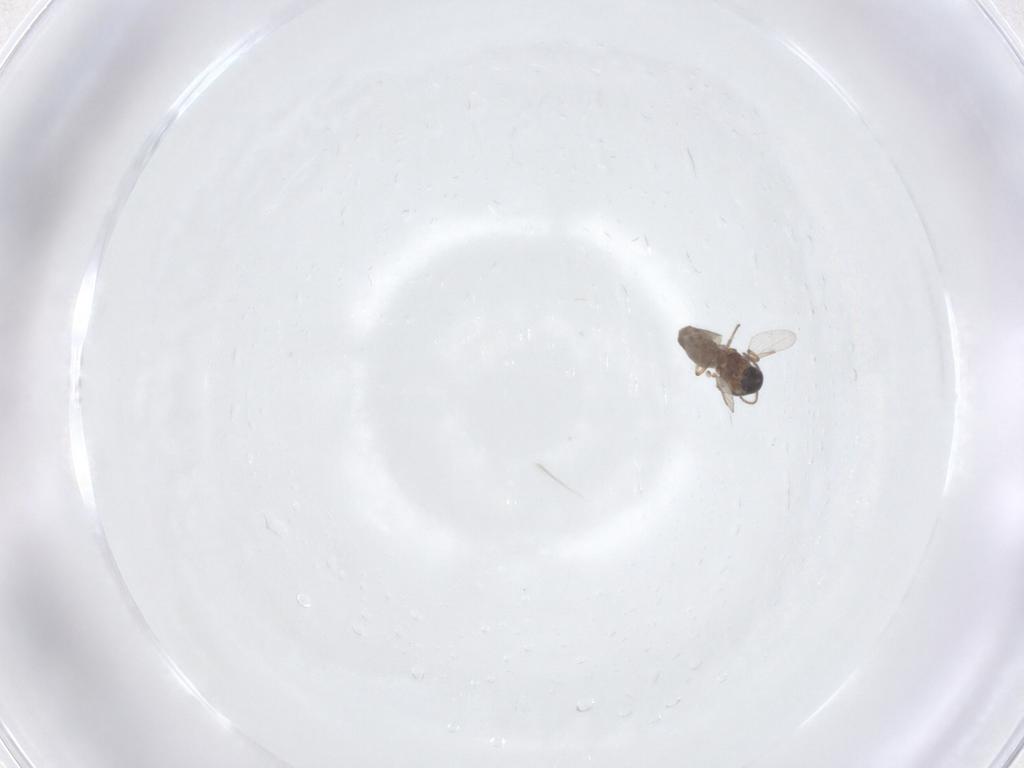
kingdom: Animalia
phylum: Arthropoda
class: Insecta
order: Diptera
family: Ceratopogonidae
